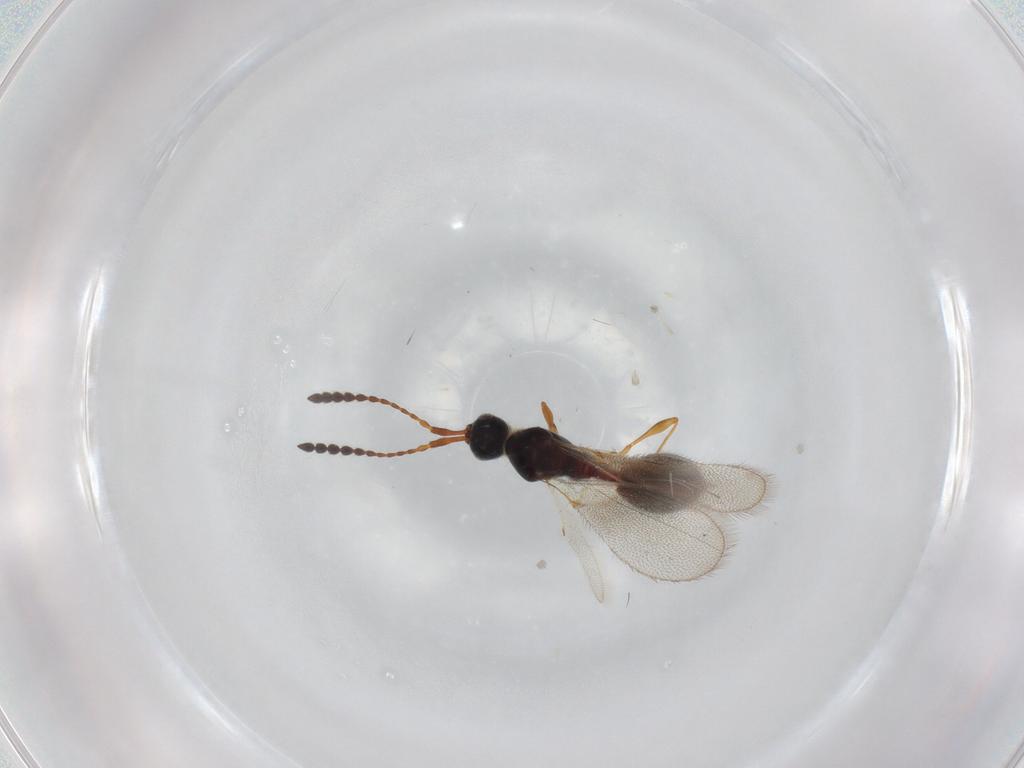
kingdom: Animalia
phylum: Arthropoda
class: Insecta
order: Hymenoptera
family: Diapriidae
